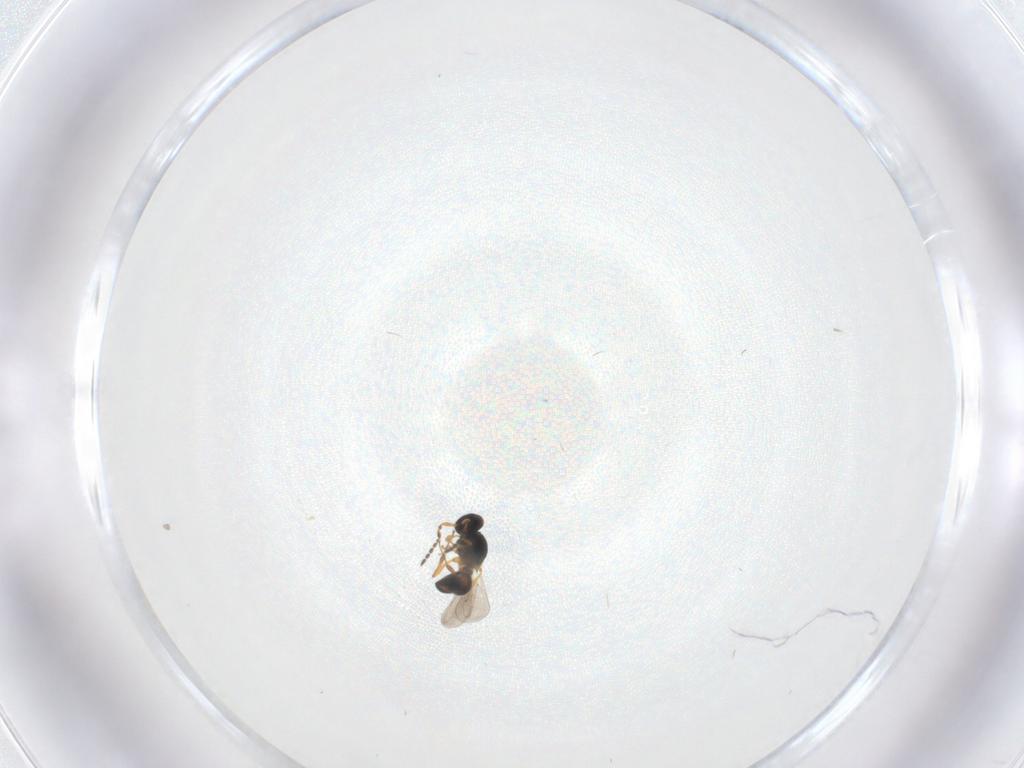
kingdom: Animalia
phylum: Arthropoda
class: Insecta
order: Hymenoptera
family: Platygastridae
